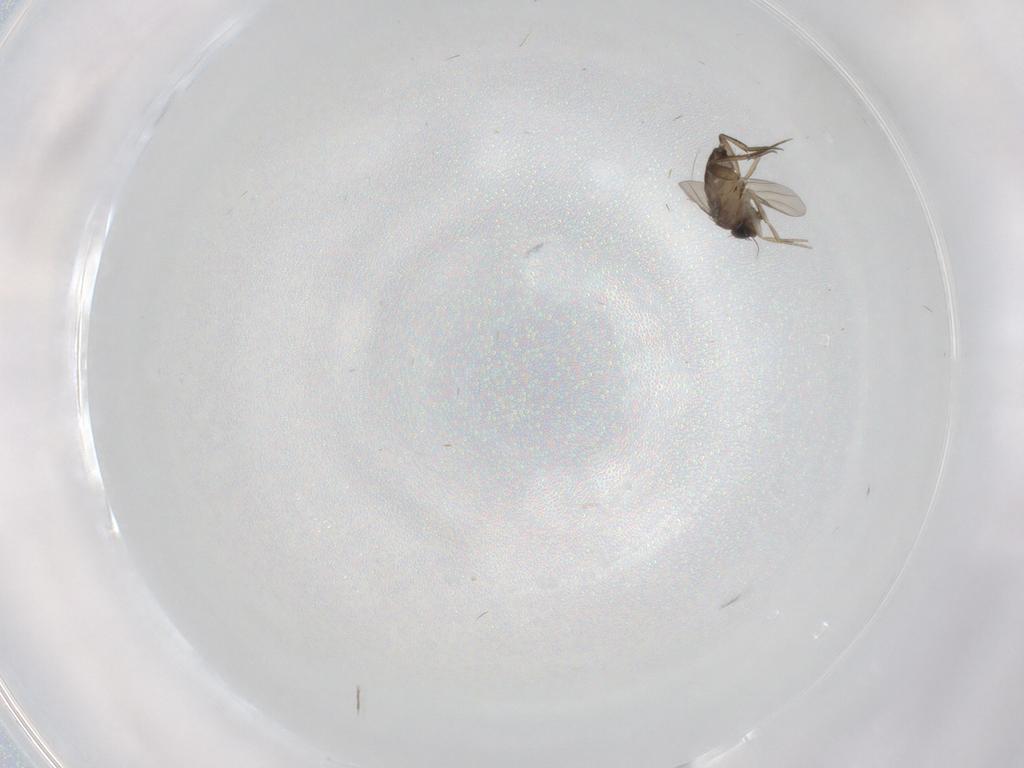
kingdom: Animalia
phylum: Arthropoda
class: Insecta
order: Diptera
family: Phoridae
